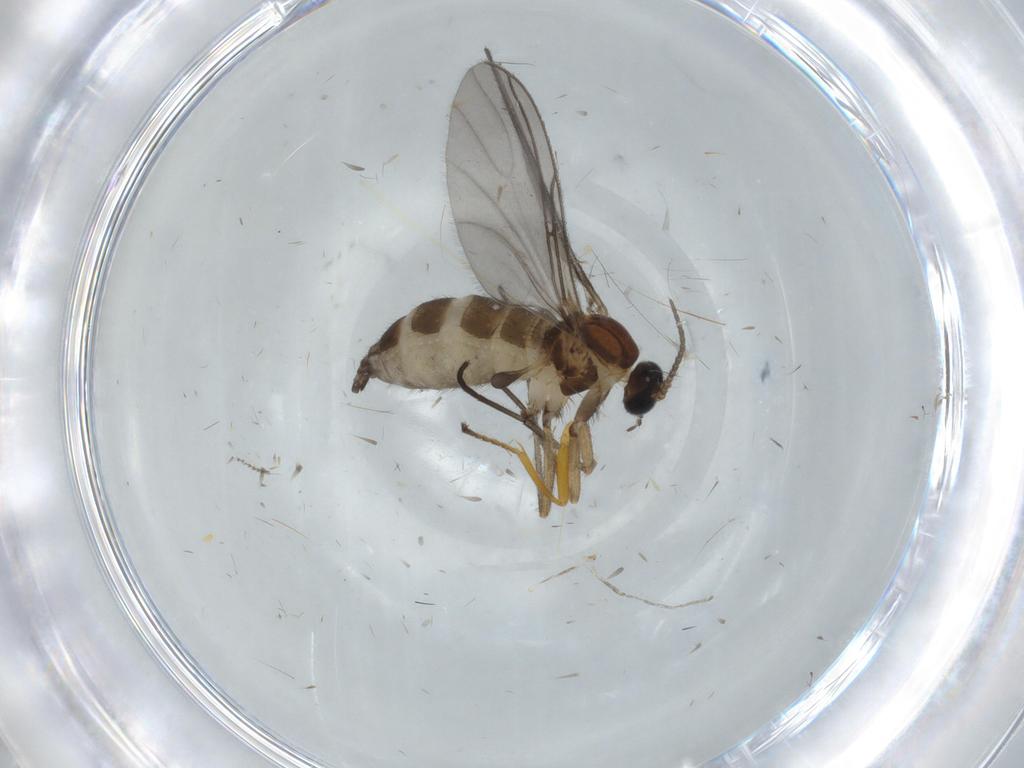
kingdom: Animalia
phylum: Arthropoda
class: Insecta
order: Diptera
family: Sciaridae
